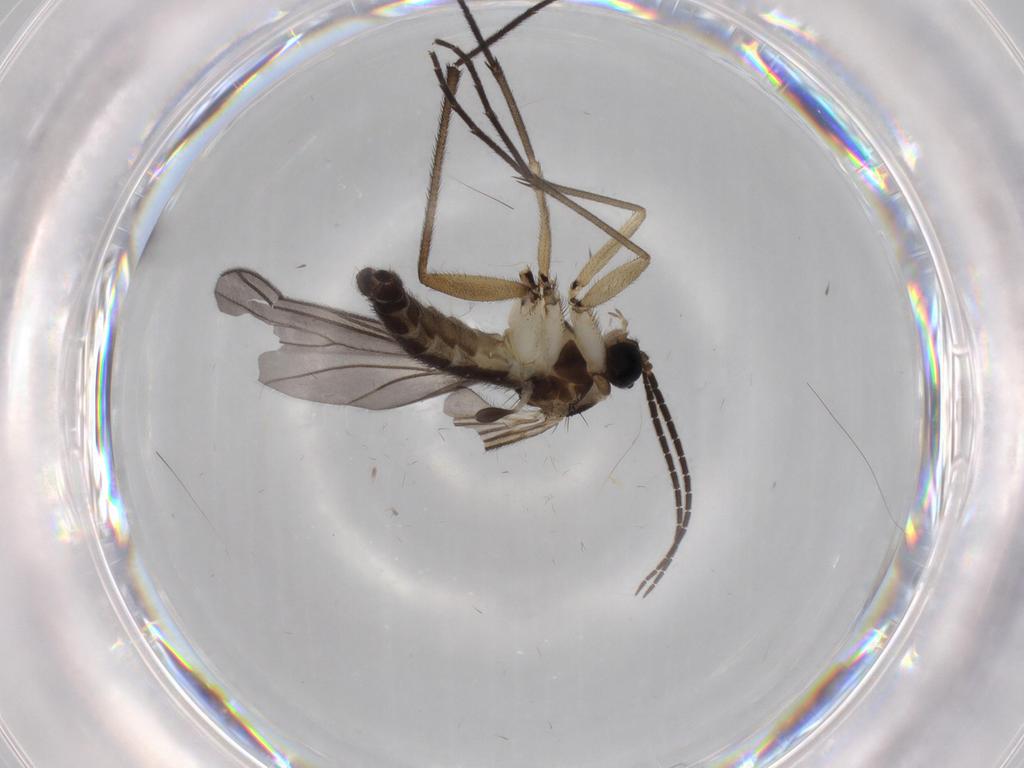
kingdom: Animalia
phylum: Arthropoda
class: Insecta
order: Diptera
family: Sciaridae
